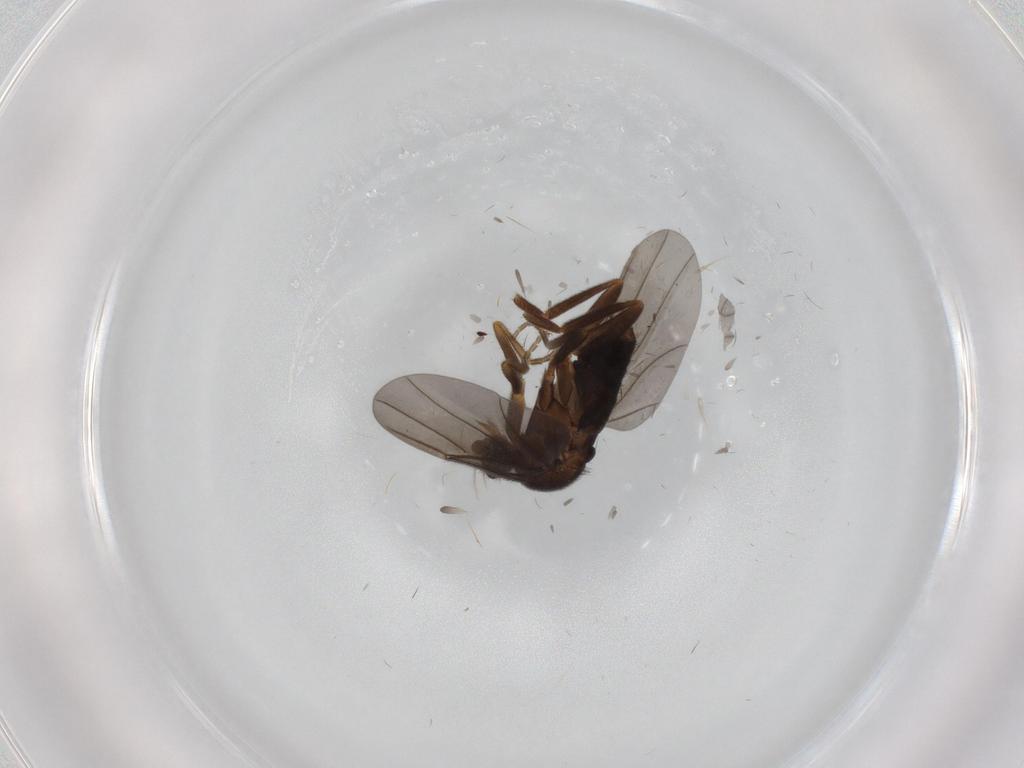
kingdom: Animalia
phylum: Arthropoda
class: Insecta
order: Diptera
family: Phoridae
